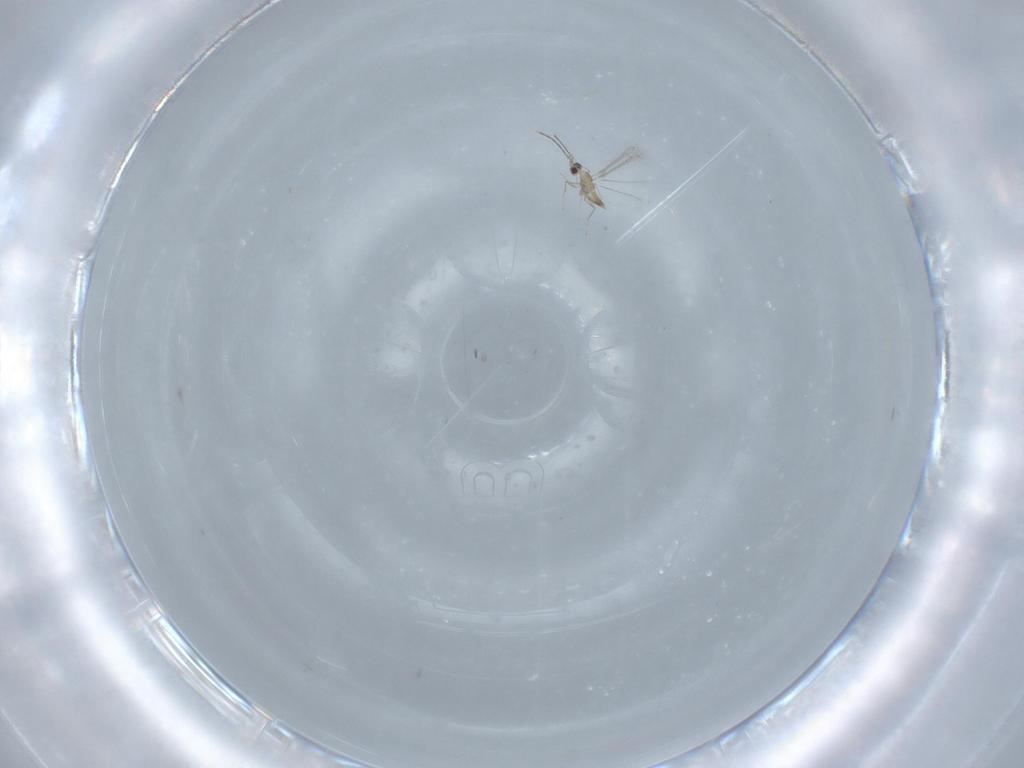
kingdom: Animalia
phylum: Arthropoda
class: Insecta
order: Hymenoptera
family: Mymaridae
